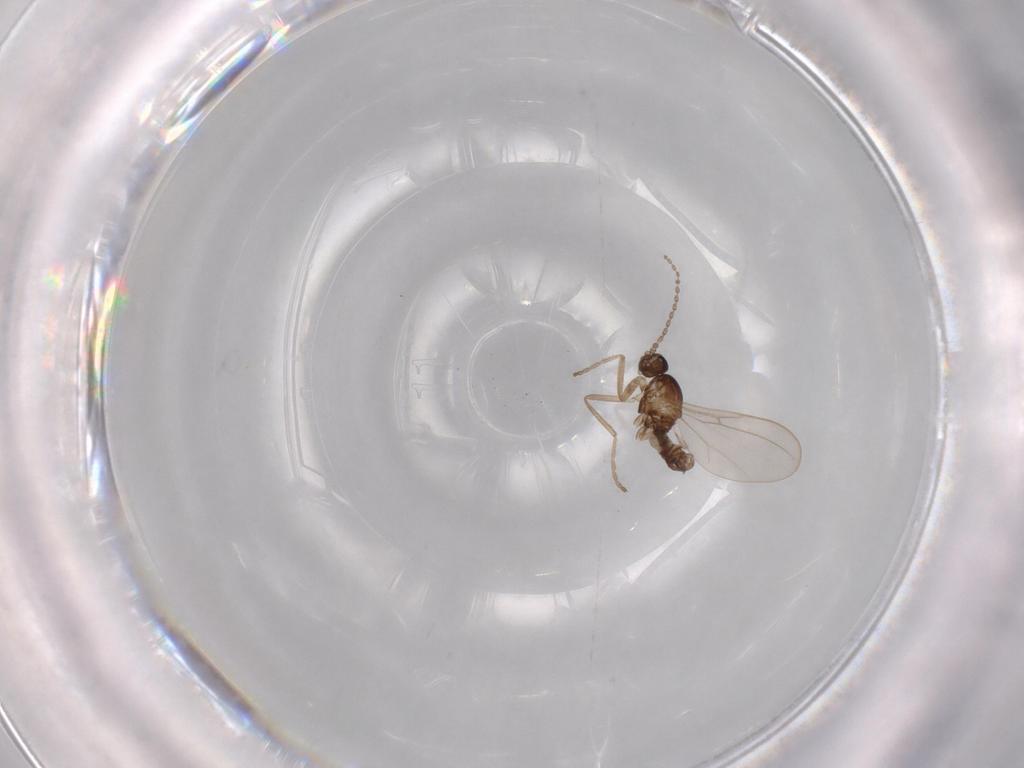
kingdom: Animalia
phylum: Arthropoda
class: Insecta
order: Diptera
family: Cecidomyiidae
